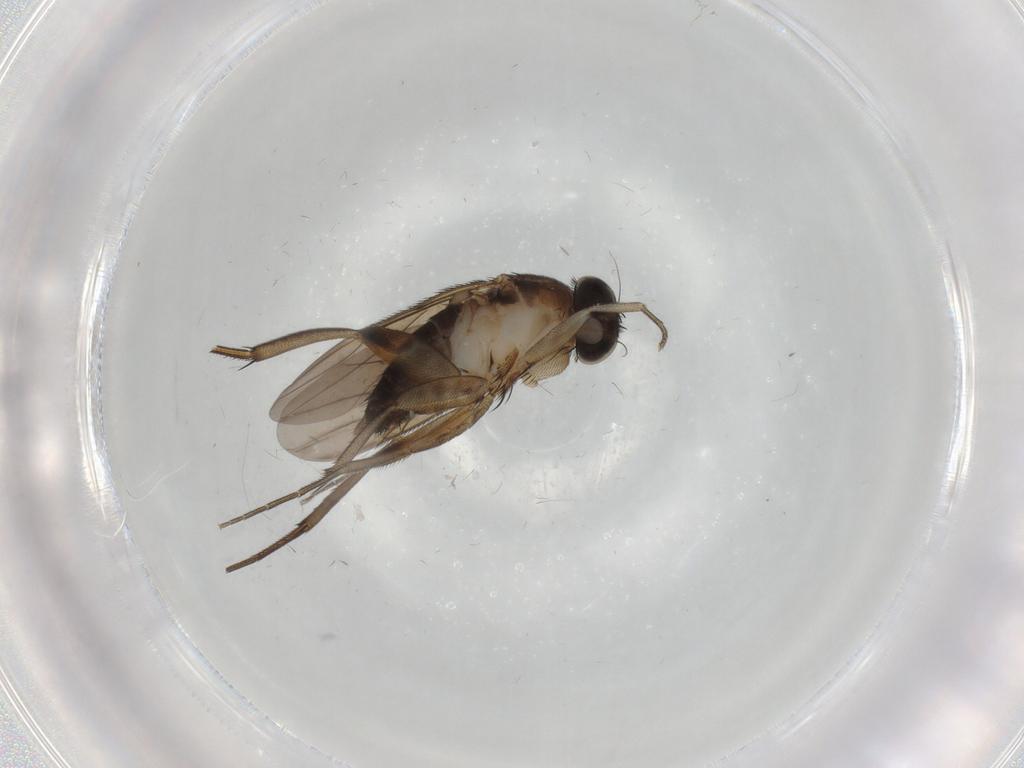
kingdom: Animalia
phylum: Arthropoda
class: Insecta
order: Diptera
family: Phoridae
